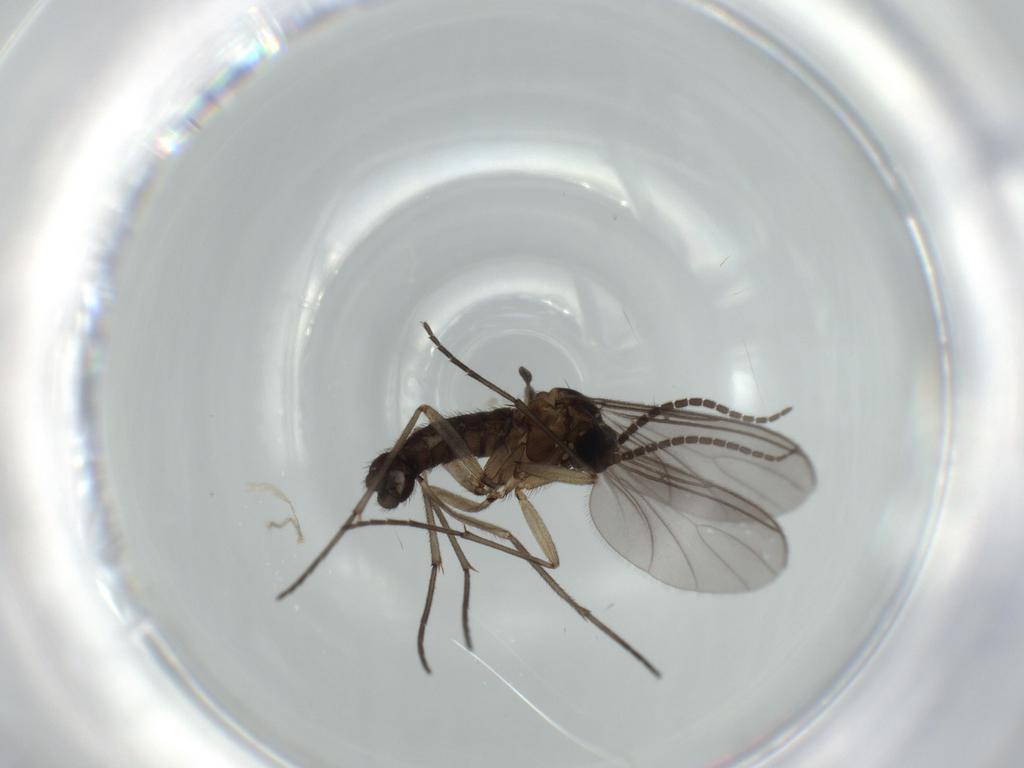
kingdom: Animalia
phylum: Arthropoda
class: Insecta
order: Diptera
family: Sciaridae
